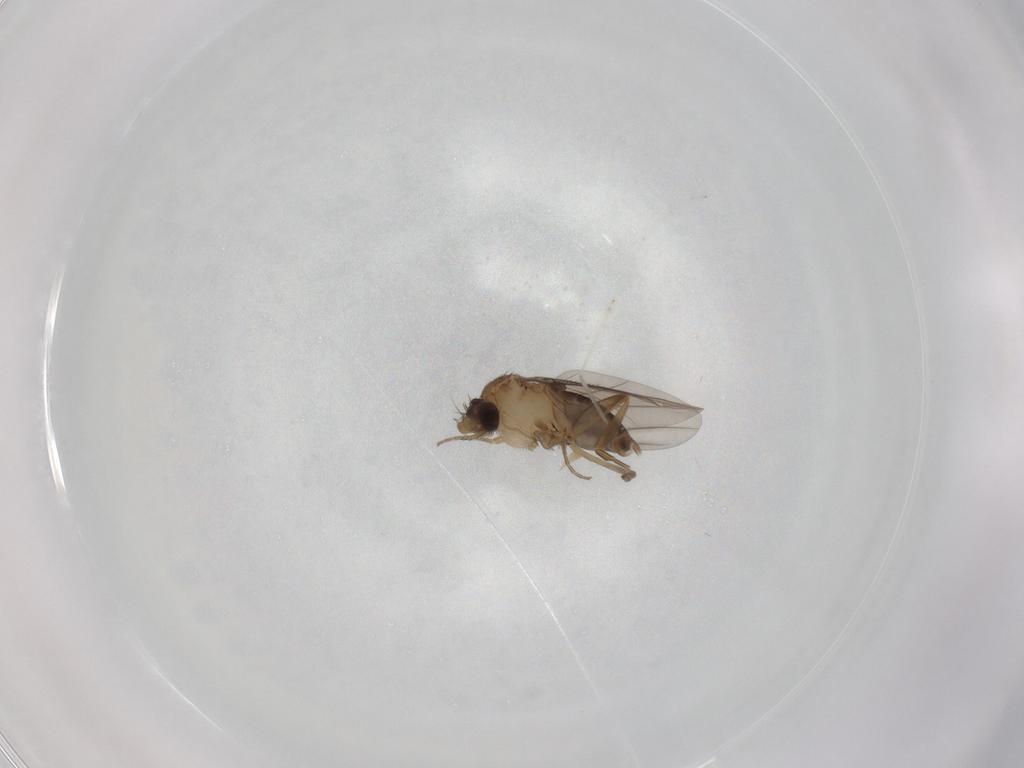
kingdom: Animalia
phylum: Arthropoda
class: Insecta
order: Diptera
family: Phoridae
